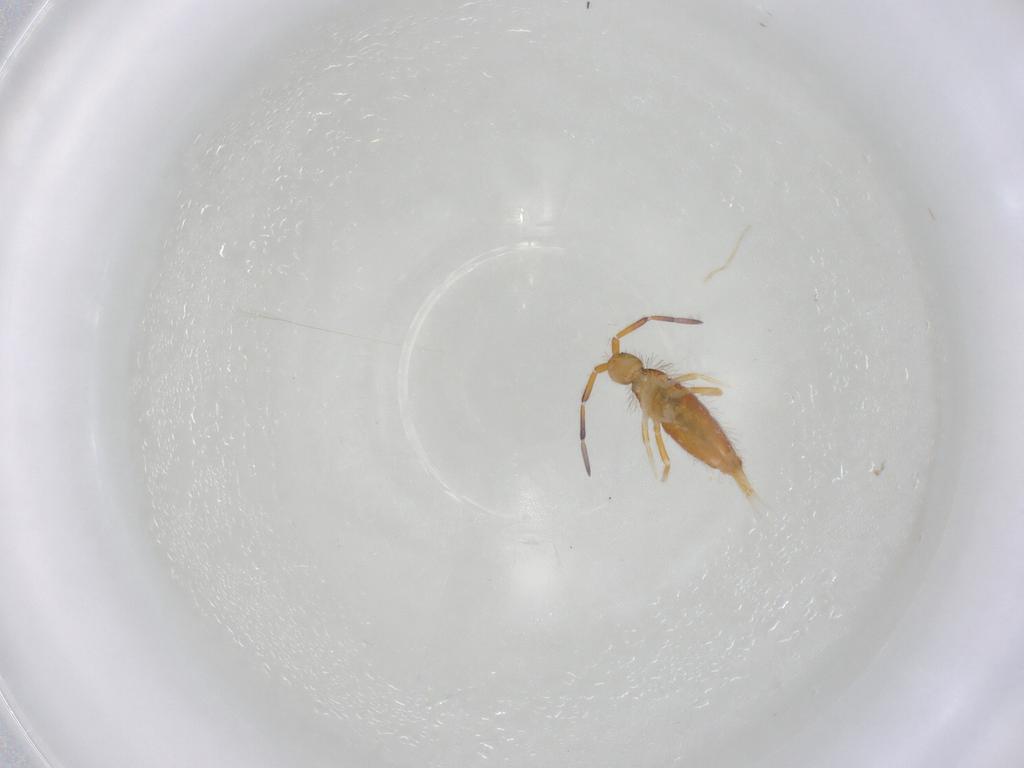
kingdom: Animalia
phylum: Arthropoda
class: Collembola
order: Entomobryomorpha
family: Entomobryidae
